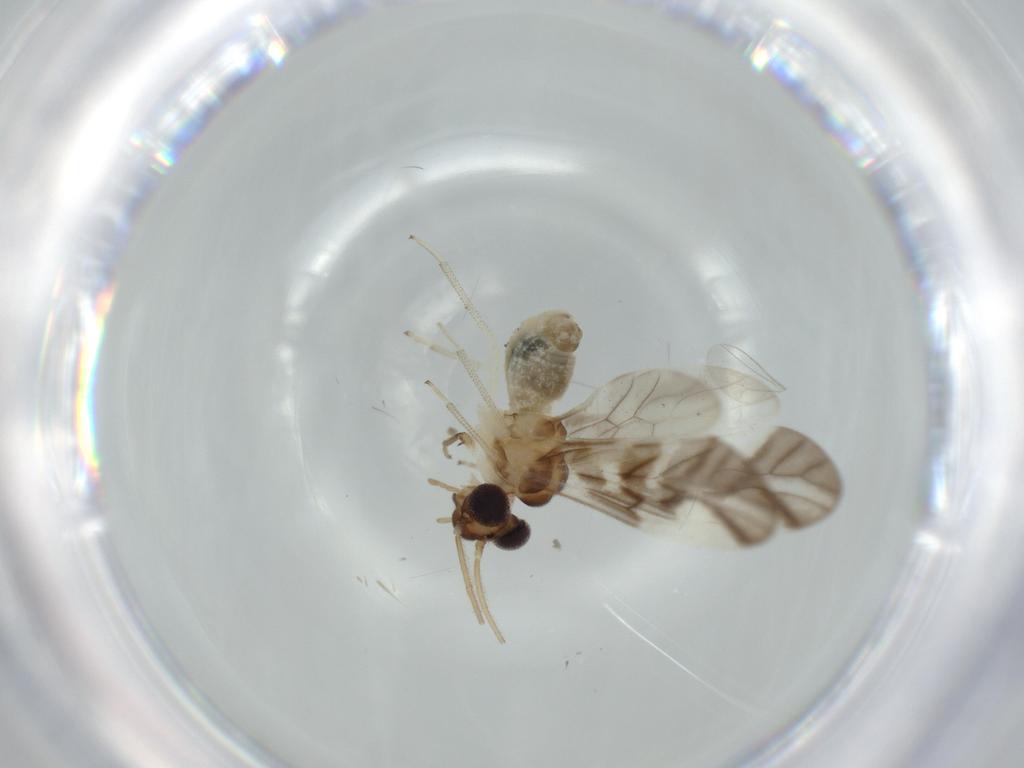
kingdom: Animalia
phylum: Arthropoda
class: Insecta
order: Psocodea
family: Caeciliusidae
